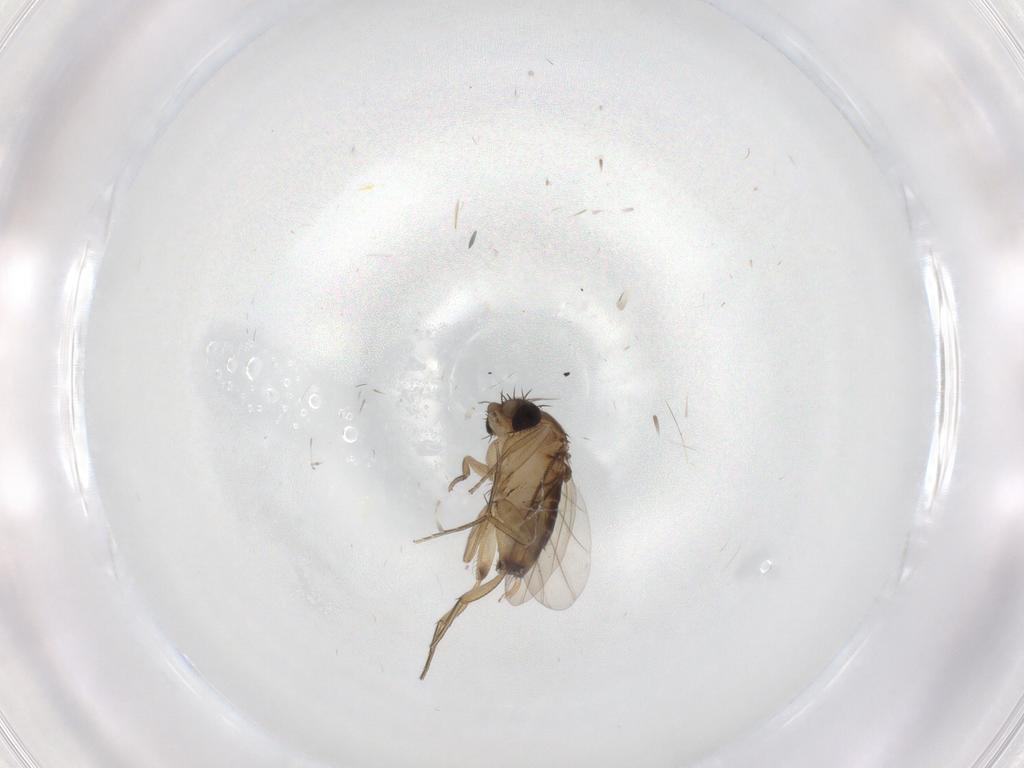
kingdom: Animalia
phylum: Arthropoda
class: Insecta
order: Diptera
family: Phoridae
